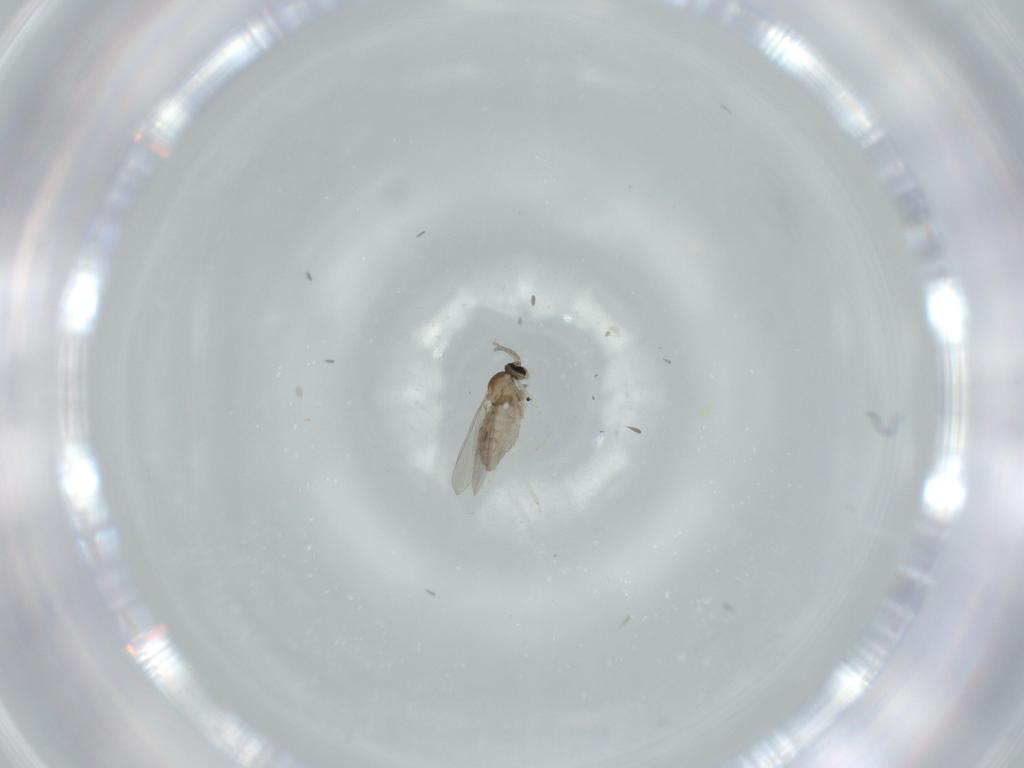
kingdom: Animalia
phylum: Arthropoda
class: Insecta
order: Diptera
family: Cecidomyiidae
